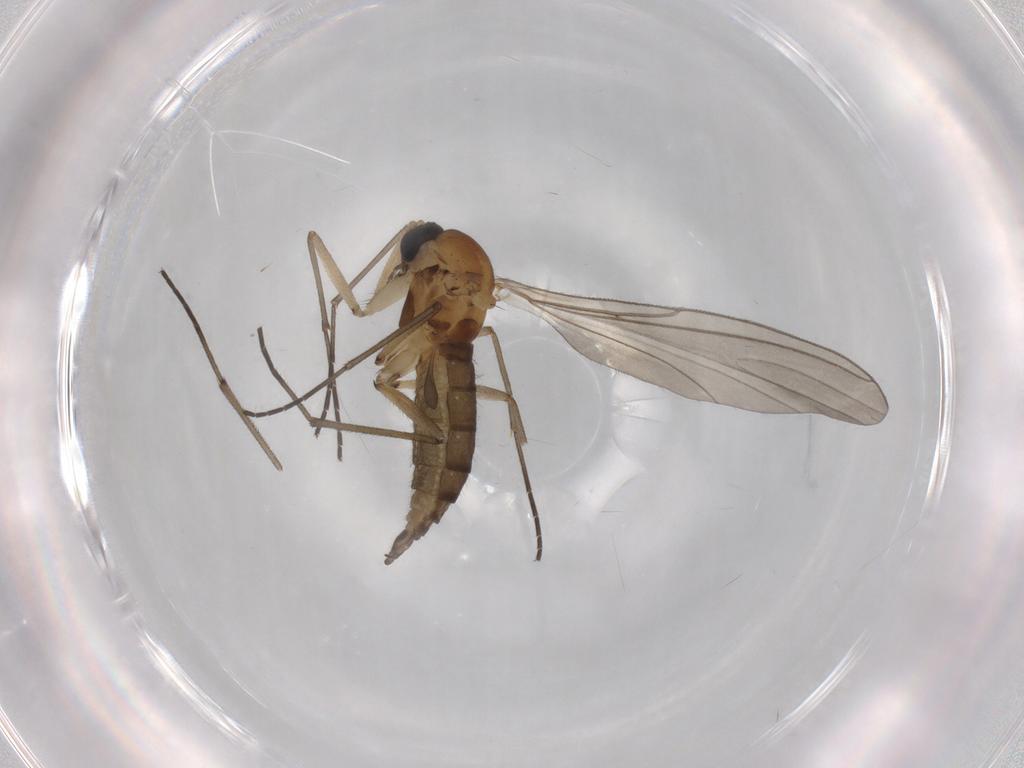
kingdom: Animalia
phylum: Arthropoda
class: Insecta
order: Diptera
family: Sciaridae
